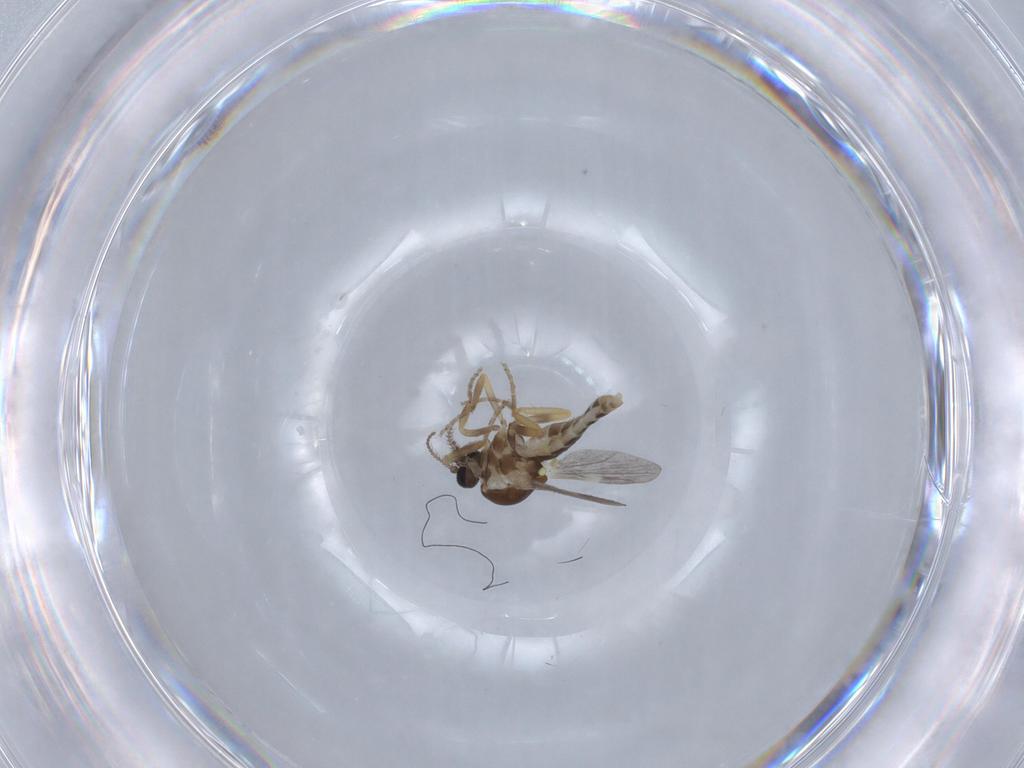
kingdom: Animalia
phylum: Arthropoda
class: Insecta
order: Diptera
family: Ceratopogonidae
